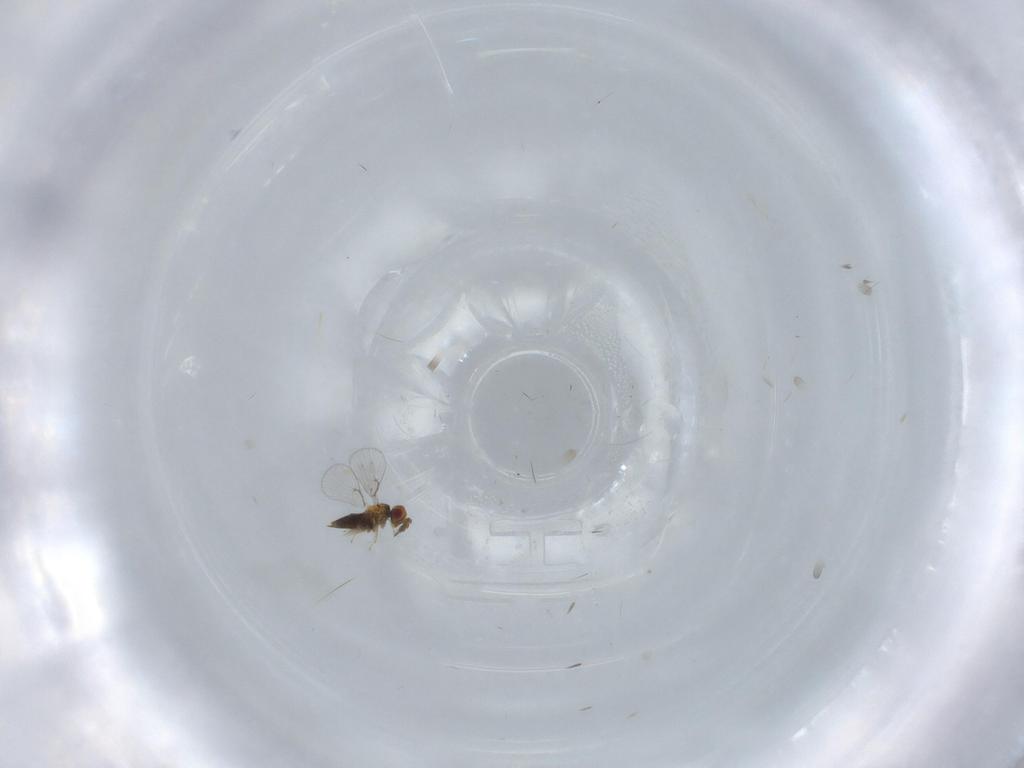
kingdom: Animalia
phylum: Arthropoda
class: Insecta
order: Hymenoptera
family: Trichogrammatidae
